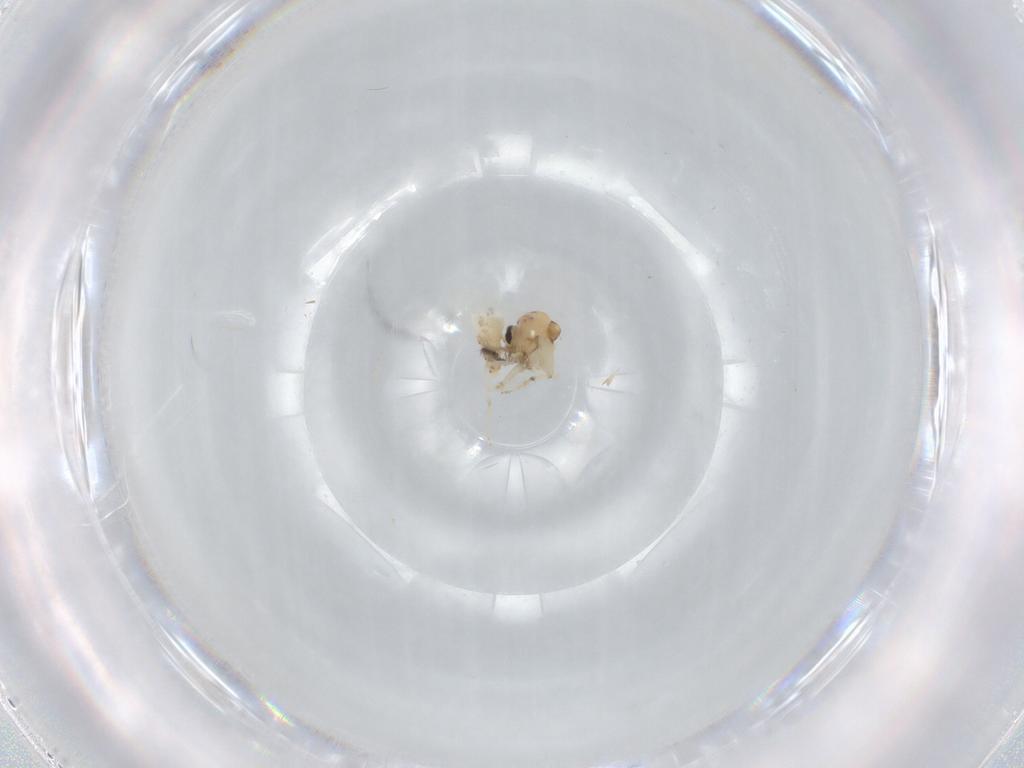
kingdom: Animalia
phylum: Arthropoda
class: Insecta
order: Diptera
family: Ceratopogonidae
